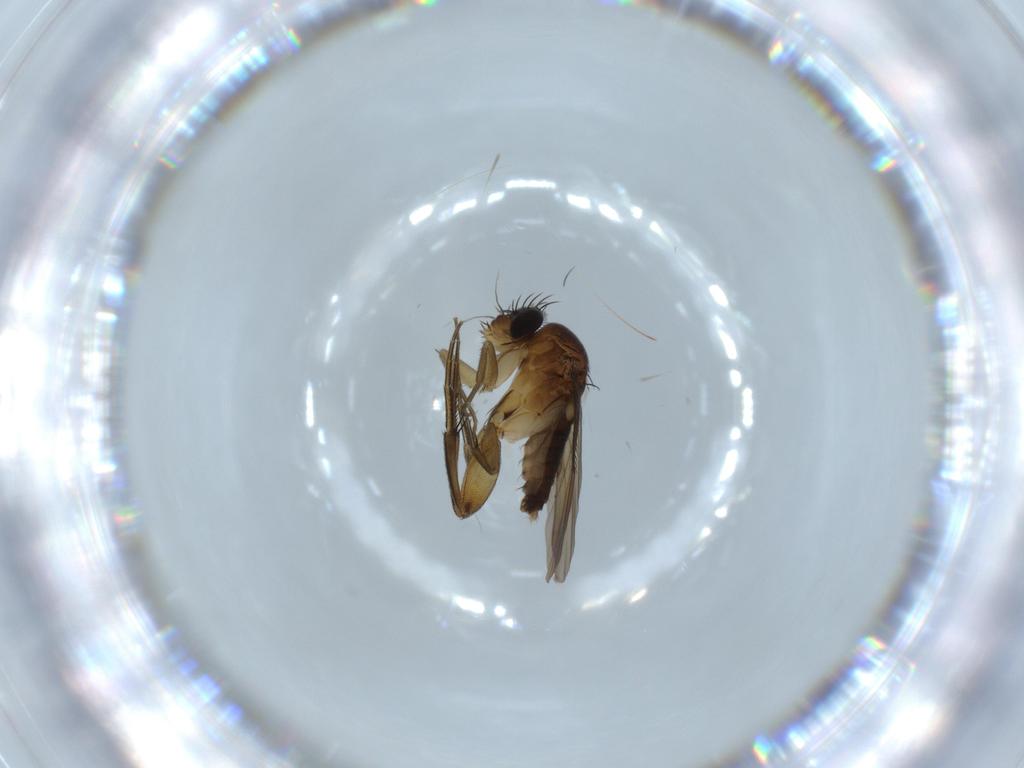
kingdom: Animalia
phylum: Arthropoda
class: Insecta
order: Diptera
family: Phoridae
